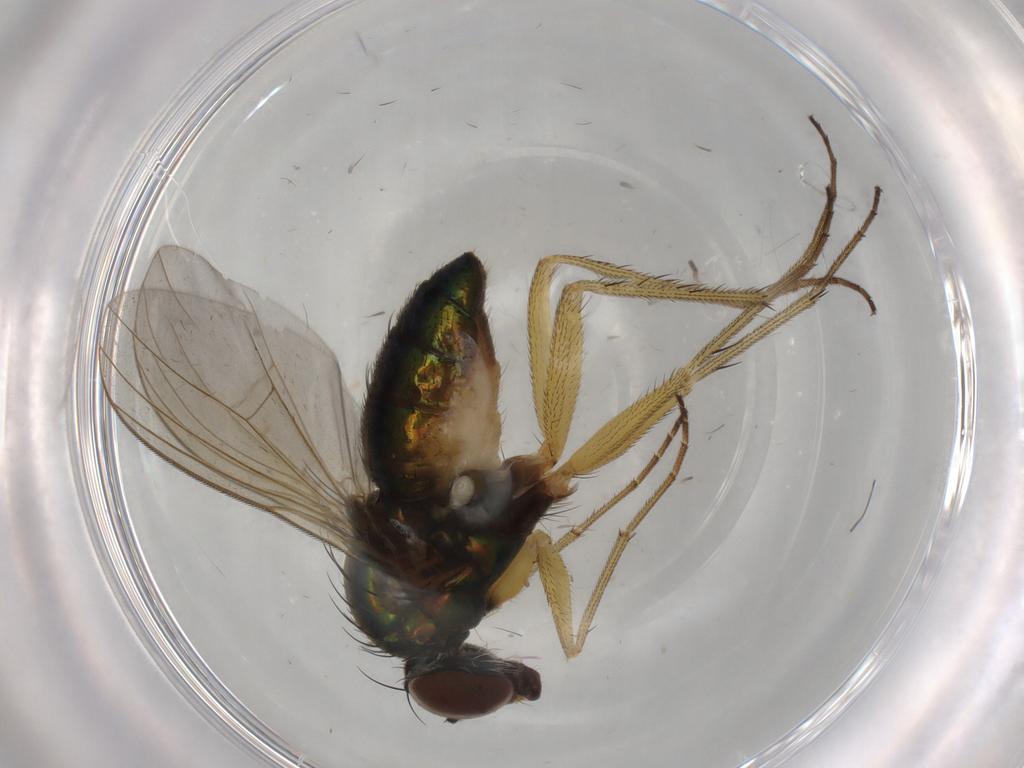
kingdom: Animalia
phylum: Arthropoda
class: Insecta
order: Diptera
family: Dolichopodidae
